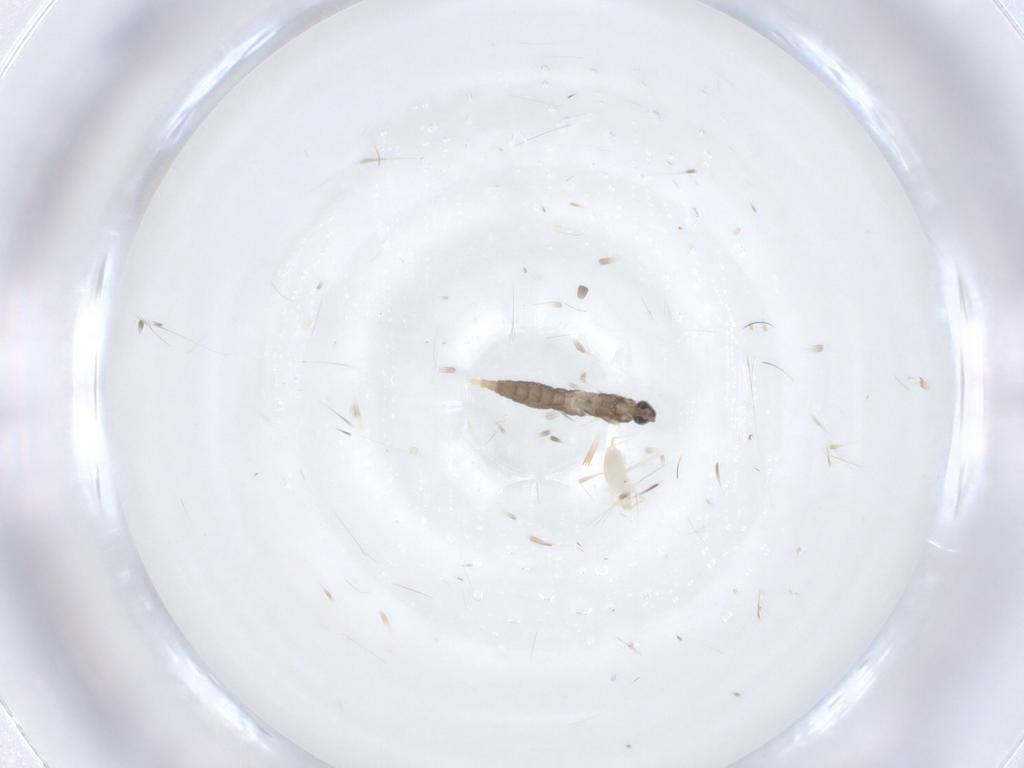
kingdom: Animalia
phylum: Arthropoda
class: Insecta
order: Diptera
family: Cecidomyiidae
